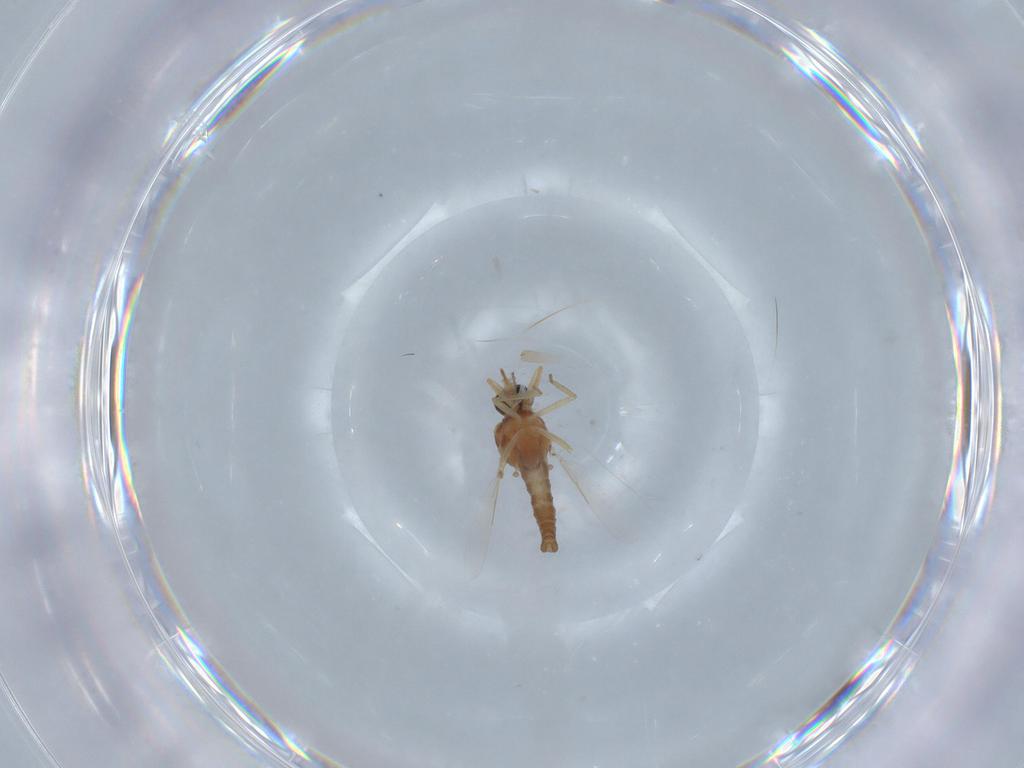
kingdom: Animalia
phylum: Arthropoda
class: Insecta
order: Diptera
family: Ceratopogonidae
